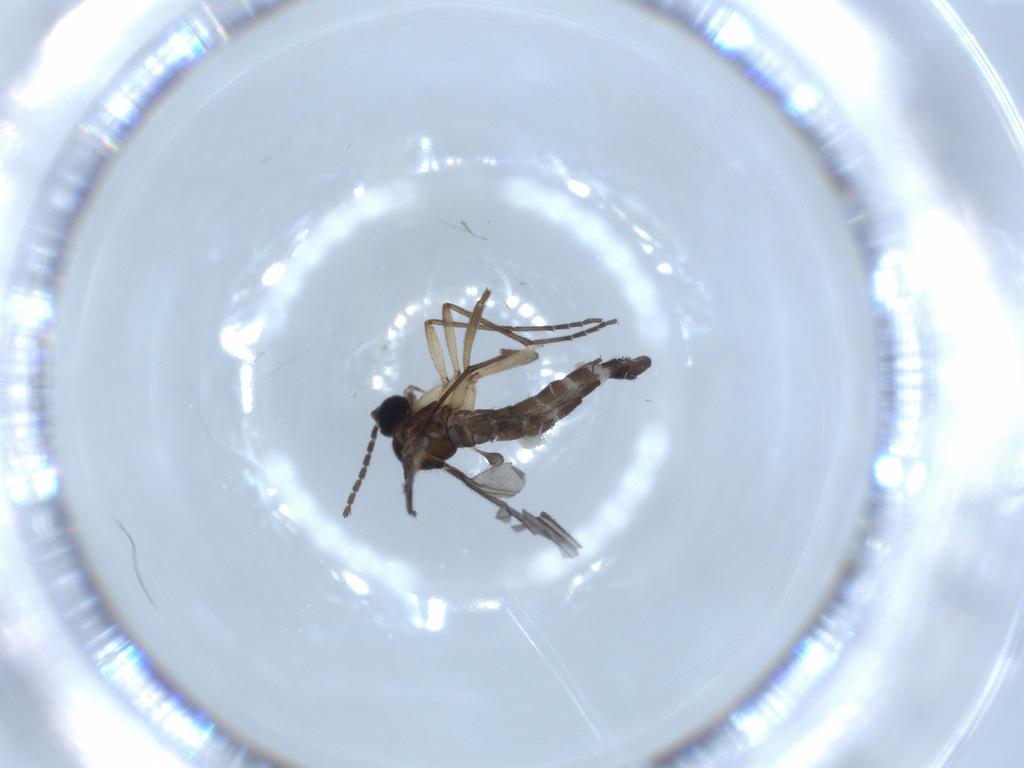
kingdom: Animalia
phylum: Arthropoda
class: Insecta
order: Diptera
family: Sciaridae
